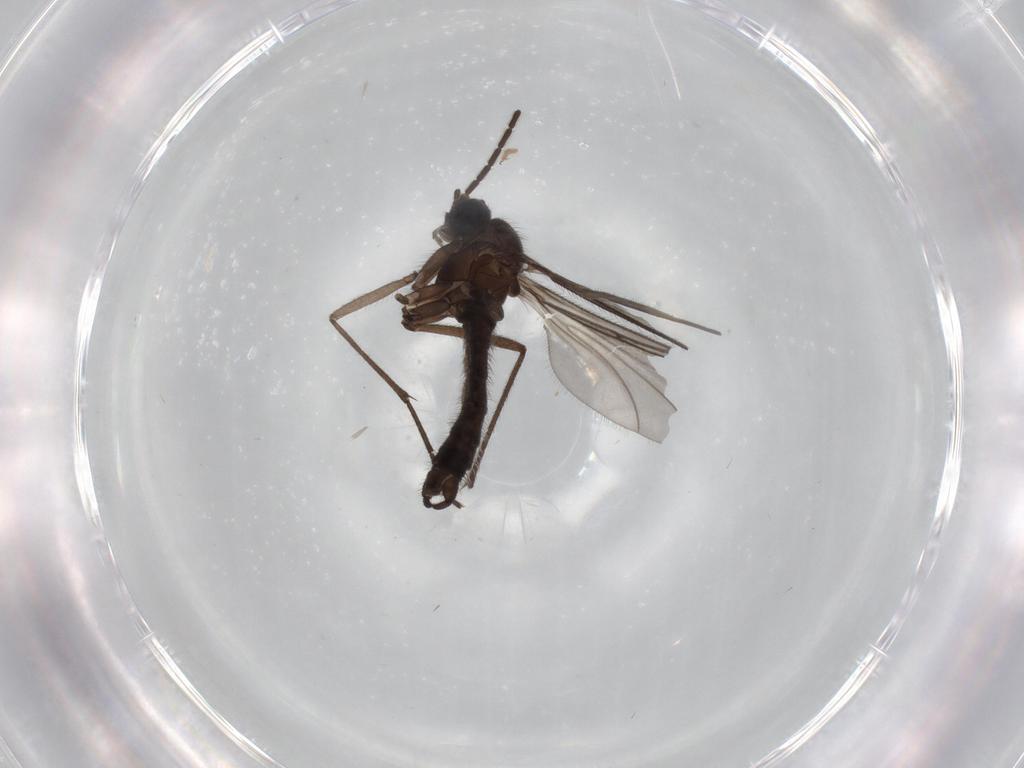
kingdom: Animalia
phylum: Arthropoda
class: Insecta
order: Diptera
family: Sciaridae
